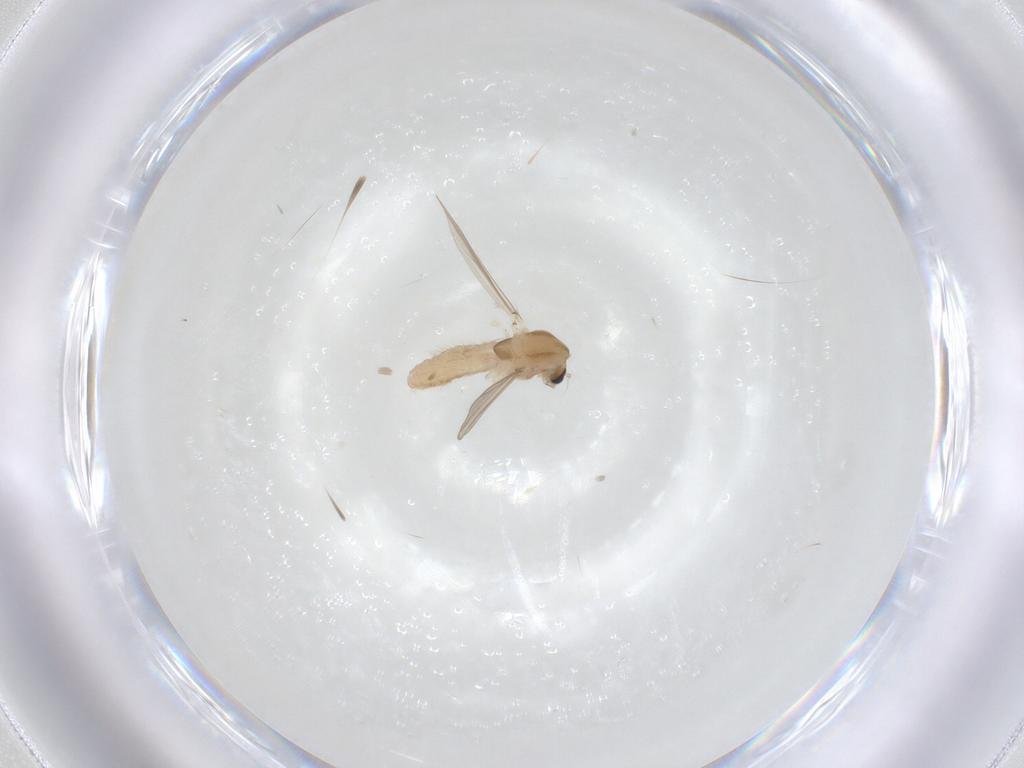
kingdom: Animalia
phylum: Arthropoda
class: Insecta
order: Diptera
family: Chironomidae
